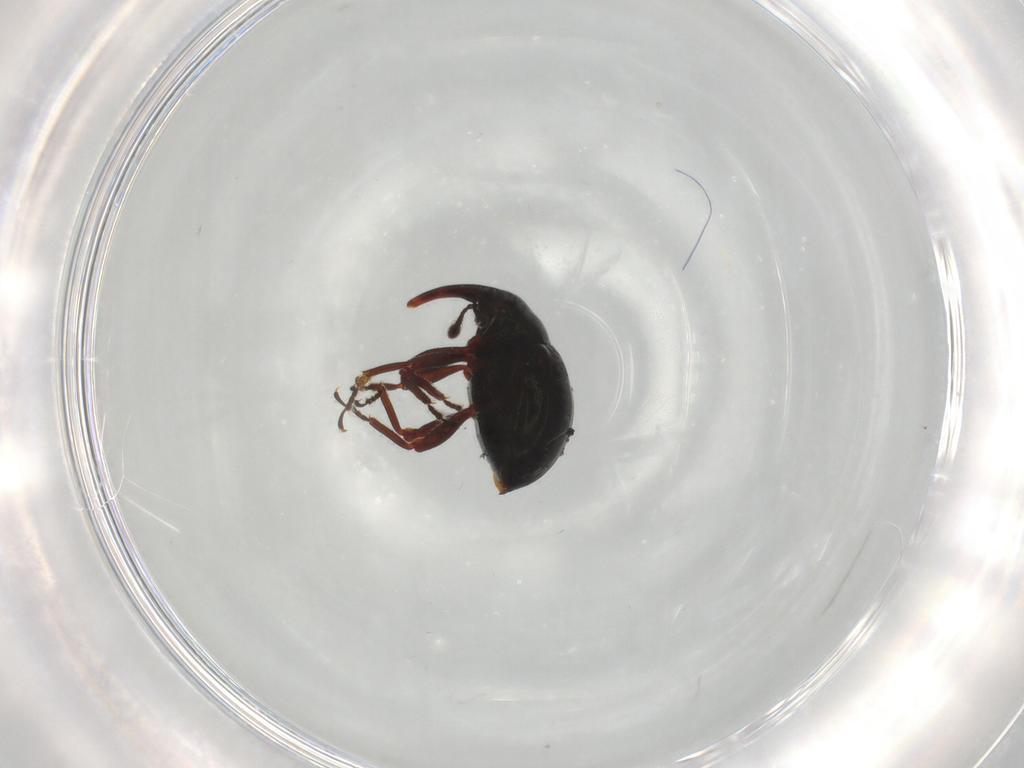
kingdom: Animalia
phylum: Arthropoda
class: Insecta
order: Coleoptera
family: Curculionidae
